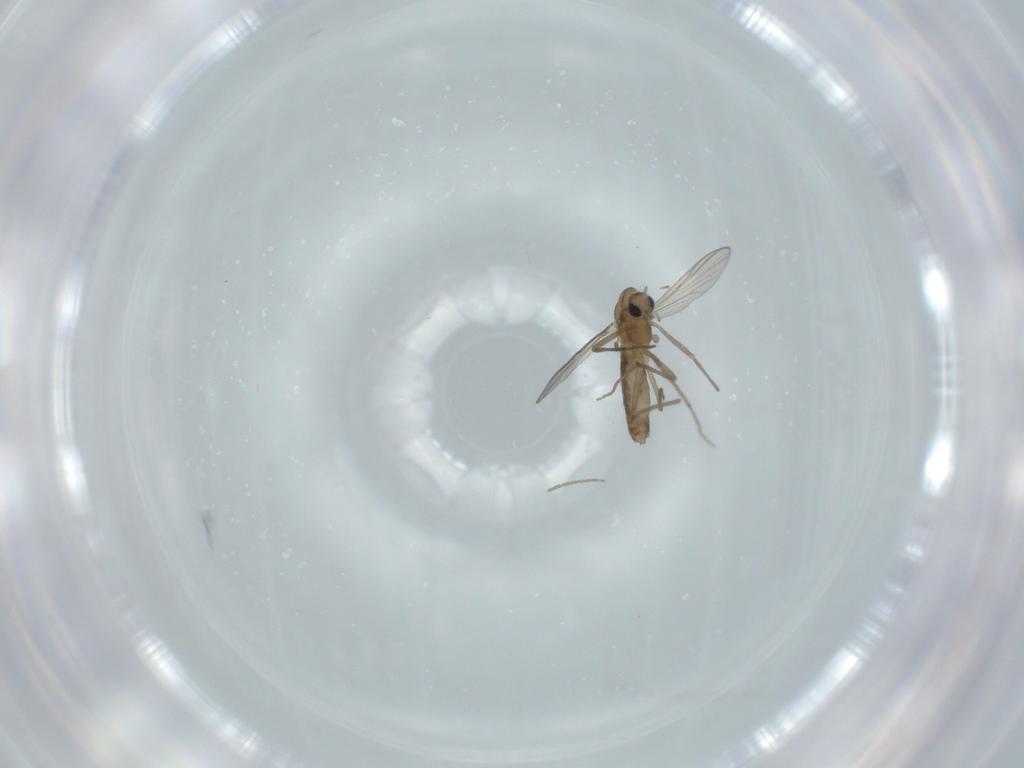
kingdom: Animalia
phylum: Arthropoda
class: Insecta
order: Diptera
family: Chironomidae
